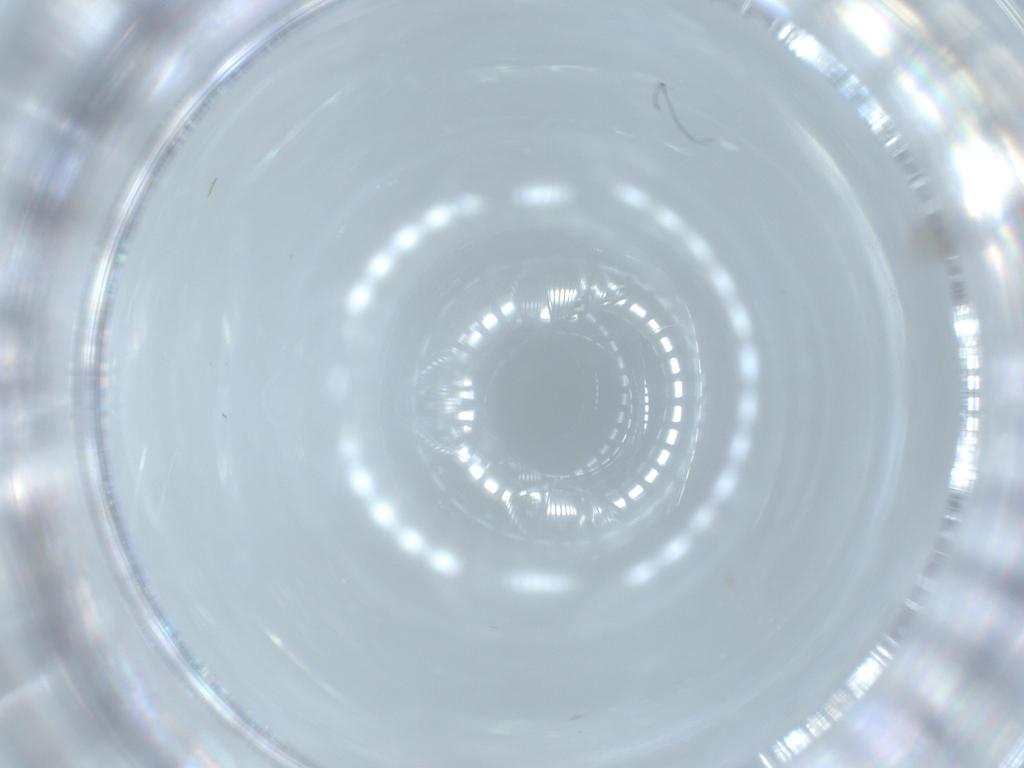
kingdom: Animalia
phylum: Arthropoda
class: Insecta
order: Hymenoptera
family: Aphelinidae
